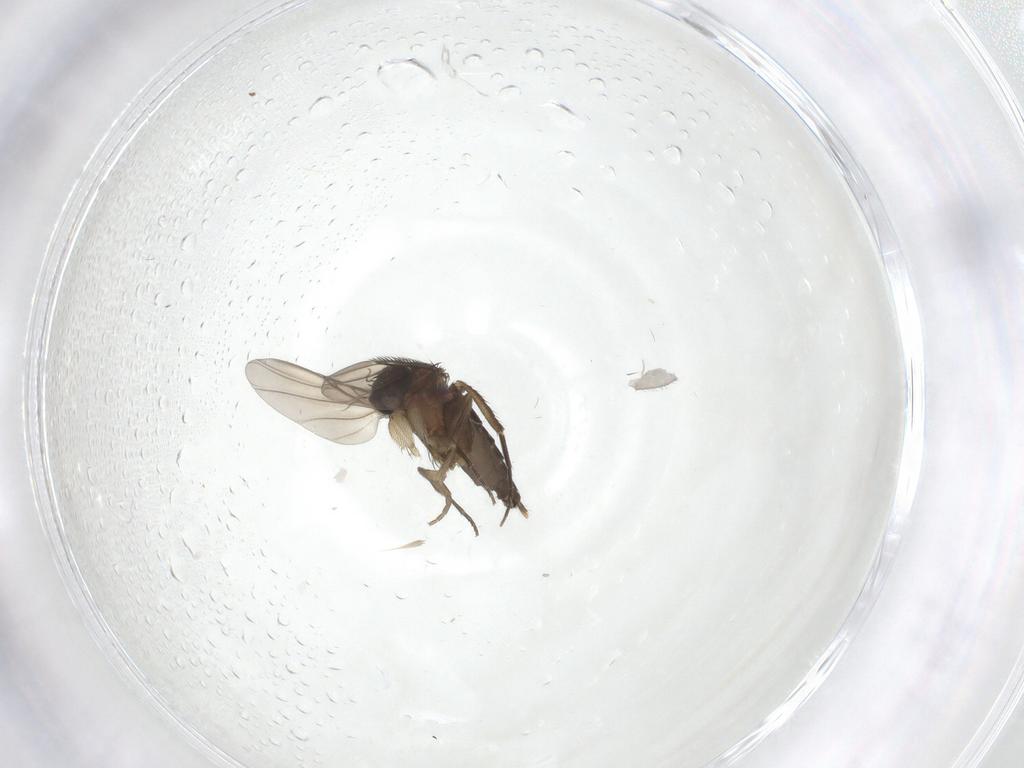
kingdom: Animalia
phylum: Arthropoda
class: Insecta
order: Diptera
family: Phoridae
